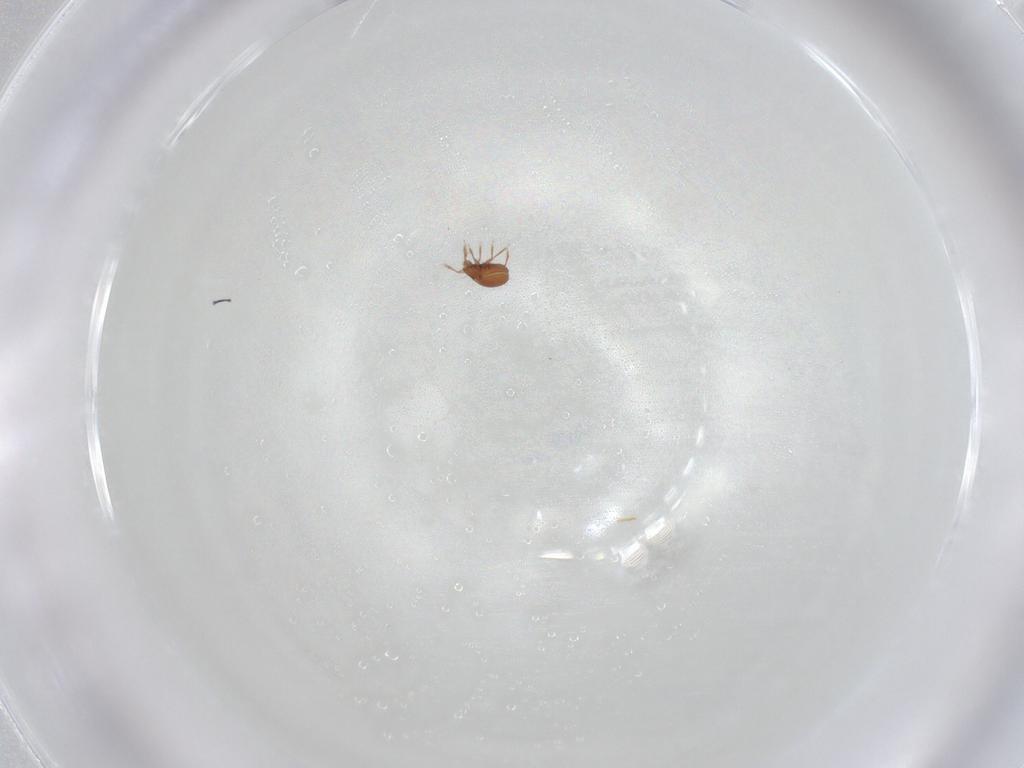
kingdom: Animalia
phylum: Arthropoda
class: Arachnida
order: Sarcoptiformes
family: Oribatulidae
